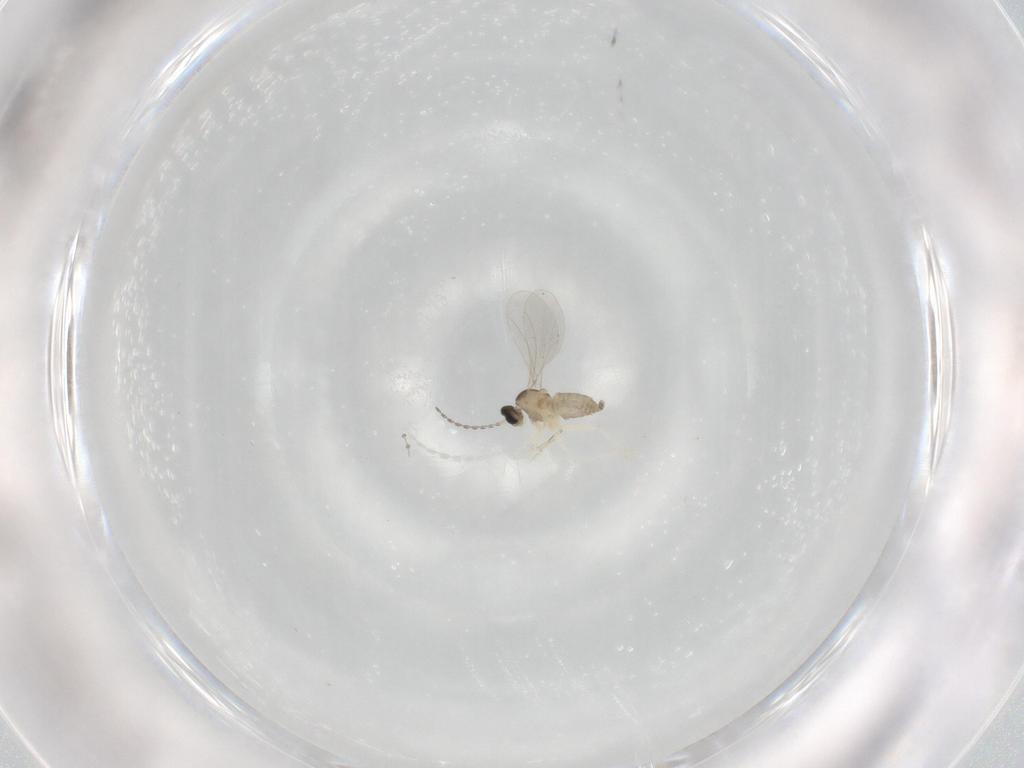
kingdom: Animalia
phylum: Arthropoda
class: Insecta
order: Diptera
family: Cecidomyiidae
